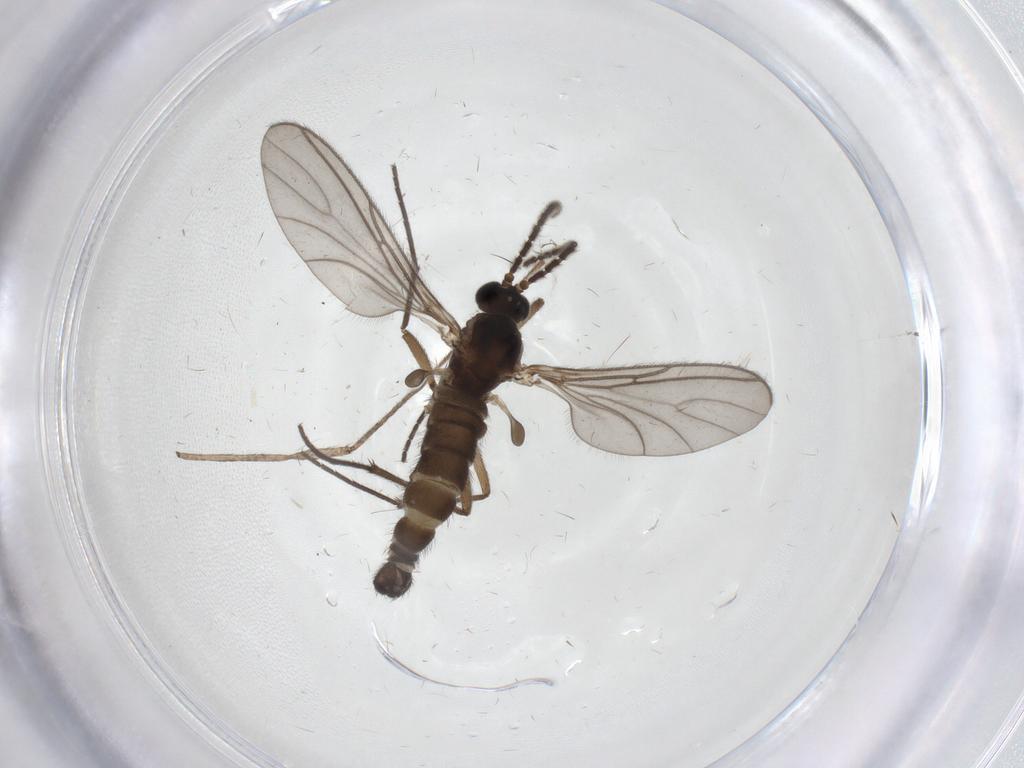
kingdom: Animalia
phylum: Arthropoda
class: Insecta
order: Diptera
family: Sciaridae
